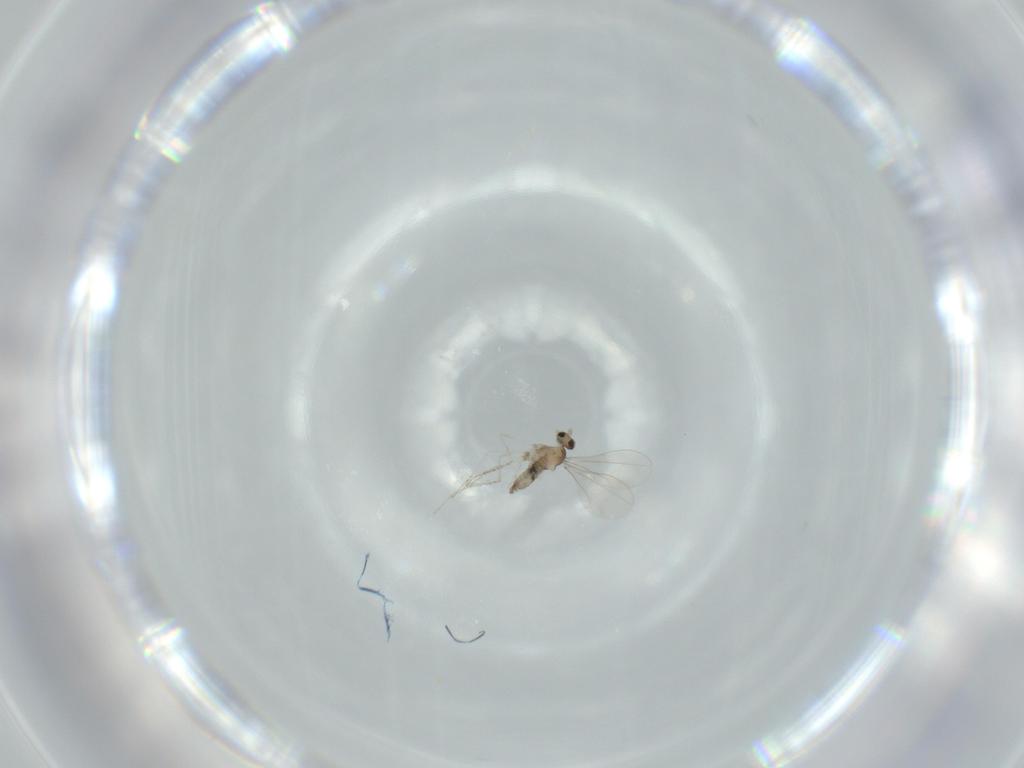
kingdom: Animalia
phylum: Arthropoda
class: Insecta
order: Diptera
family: Cecidomyiidae
